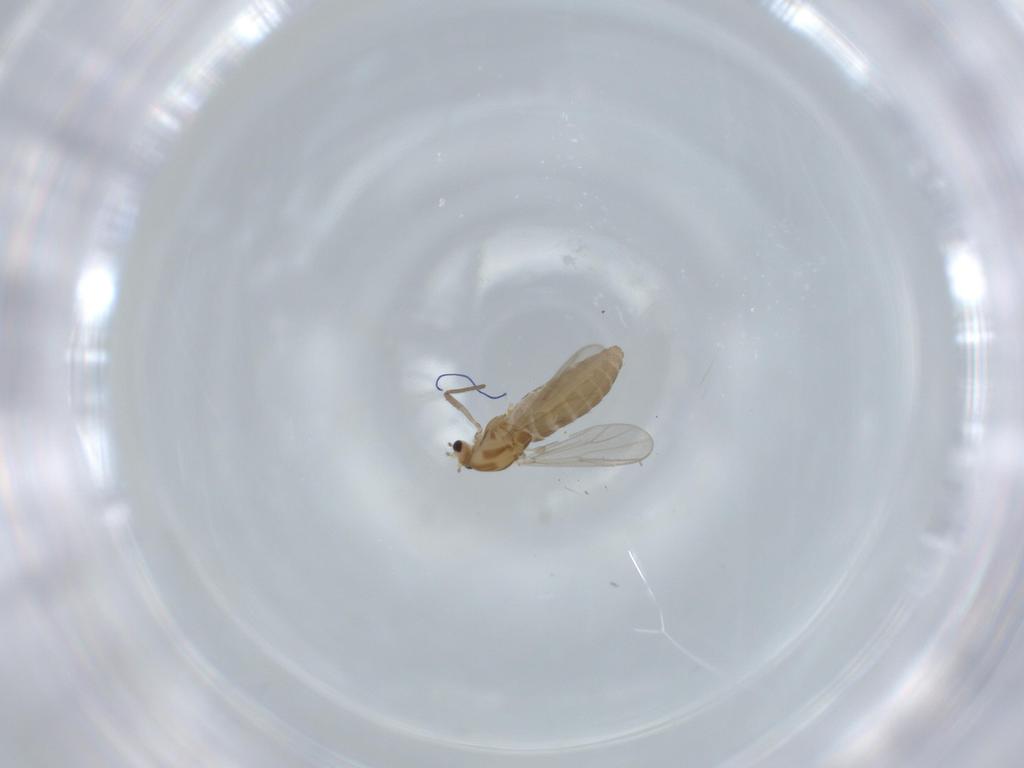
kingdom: Animalia
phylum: Arthropoda
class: Insecta
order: Diptera
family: Chironomidae
